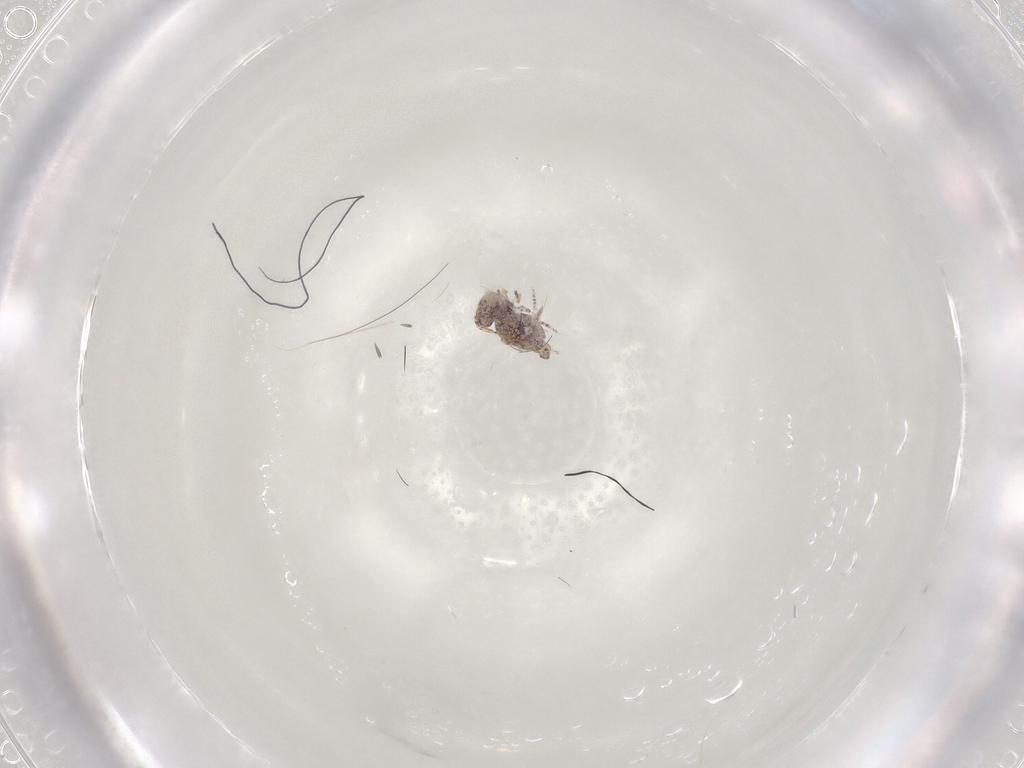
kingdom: Animalia
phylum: Arthropoda
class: Collembola
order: Symphypleona
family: Bourletiellidae
